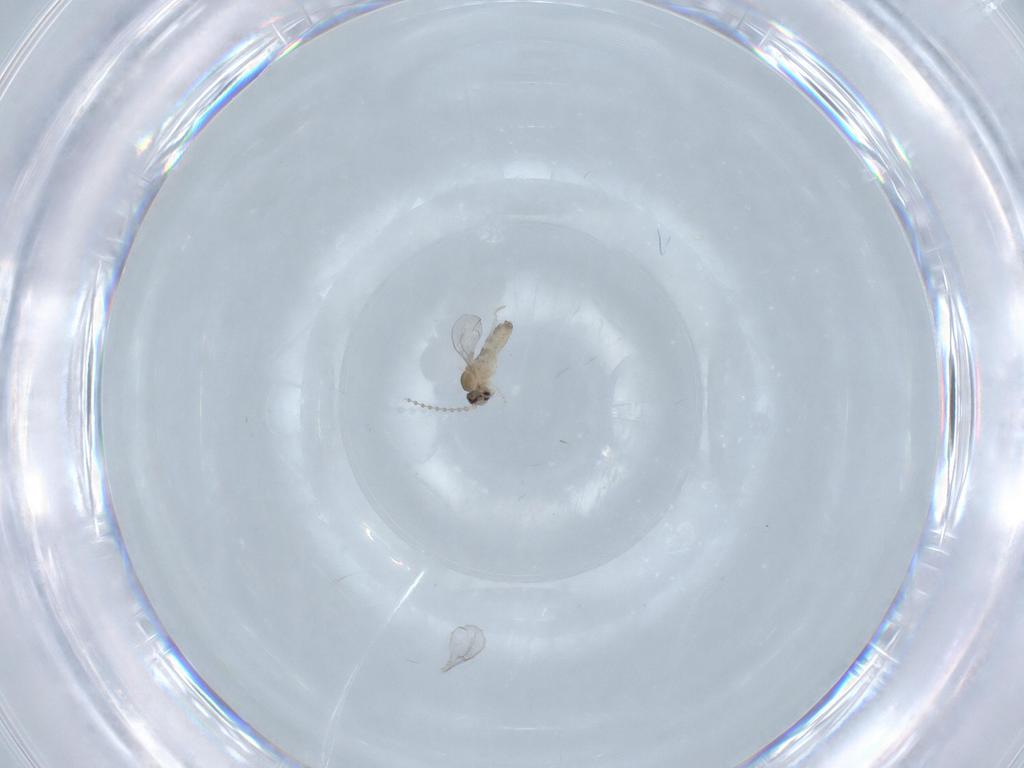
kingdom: Animalia
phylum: Arthropoda
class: Insecta
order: Diptera
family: Cecidomyiidae
